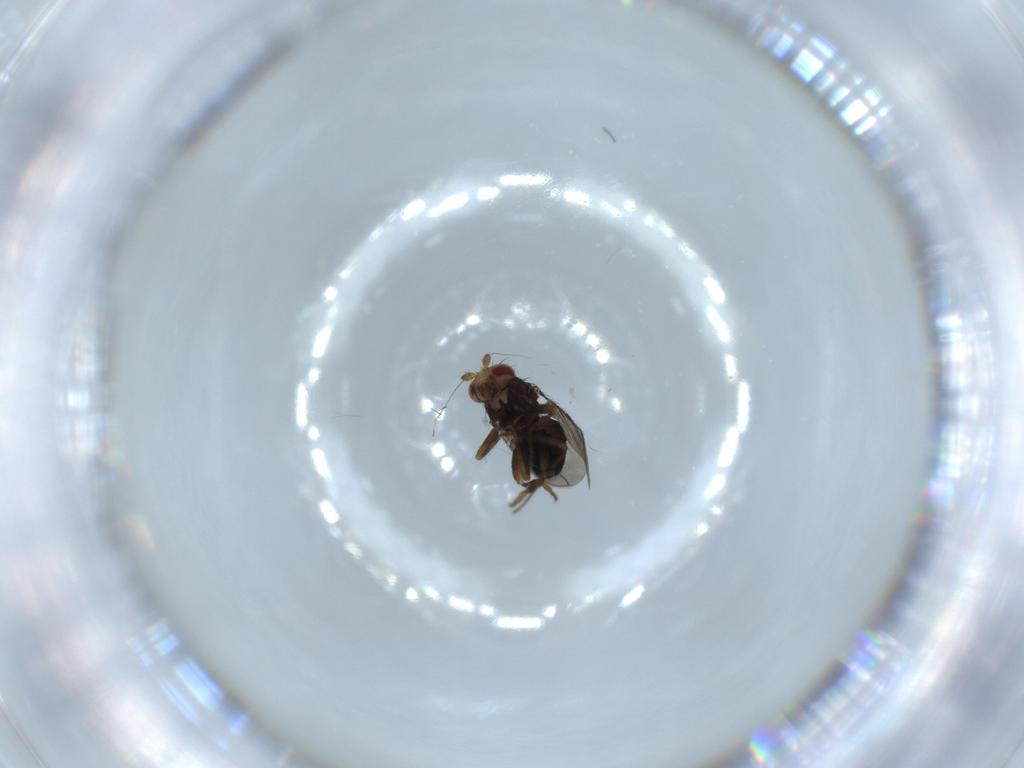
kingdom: Animalia
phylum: Arthropoda
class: Insecta
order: Diptera
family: Sphaeroceridae
